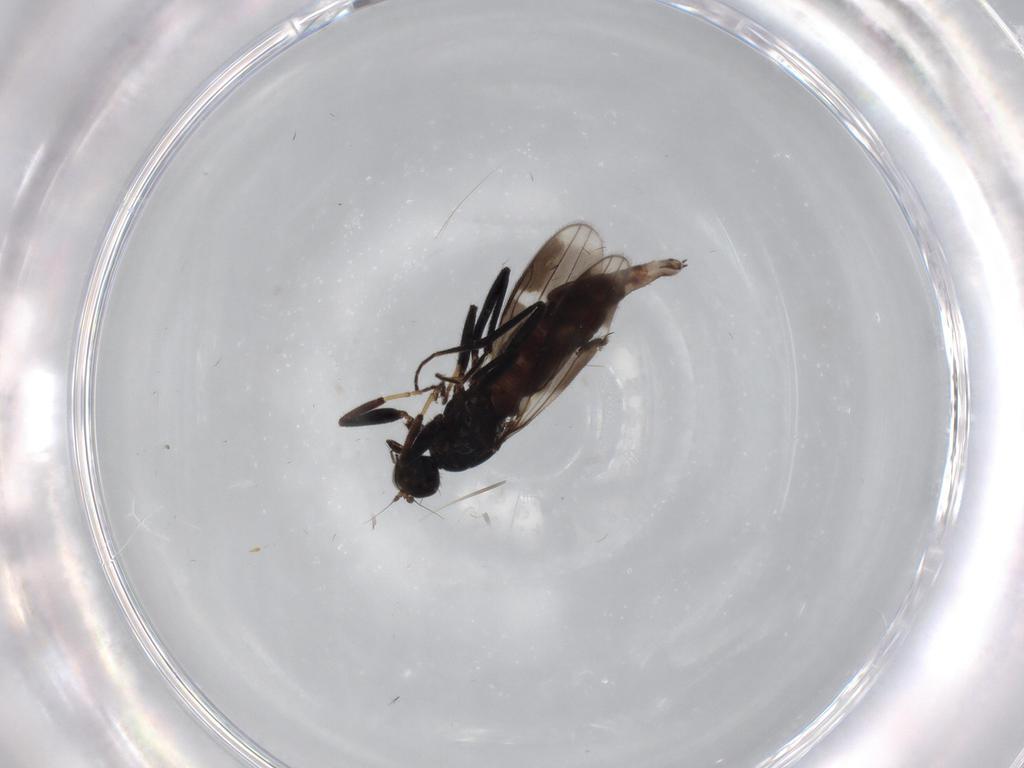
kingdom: Animalia
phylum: Arthropoda
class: Insecta
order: Diptera
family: Hybotidae
